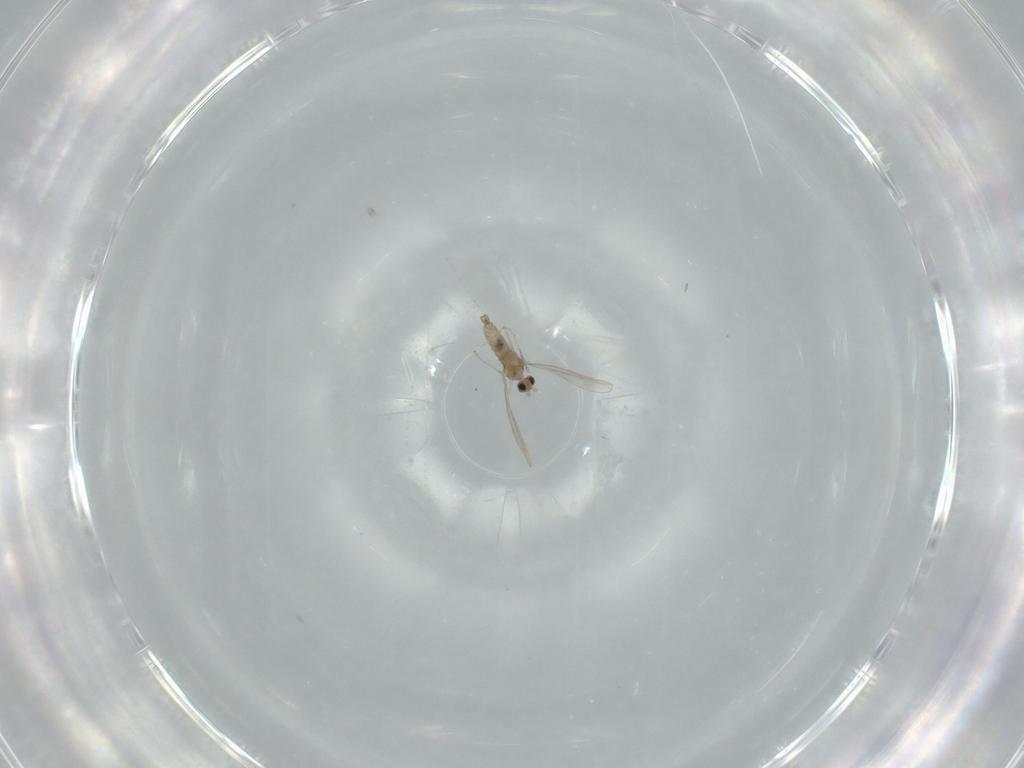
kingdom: Animalia
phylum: Arthropoda
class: Insecta
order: Diptera
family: Cecidomyiidae
